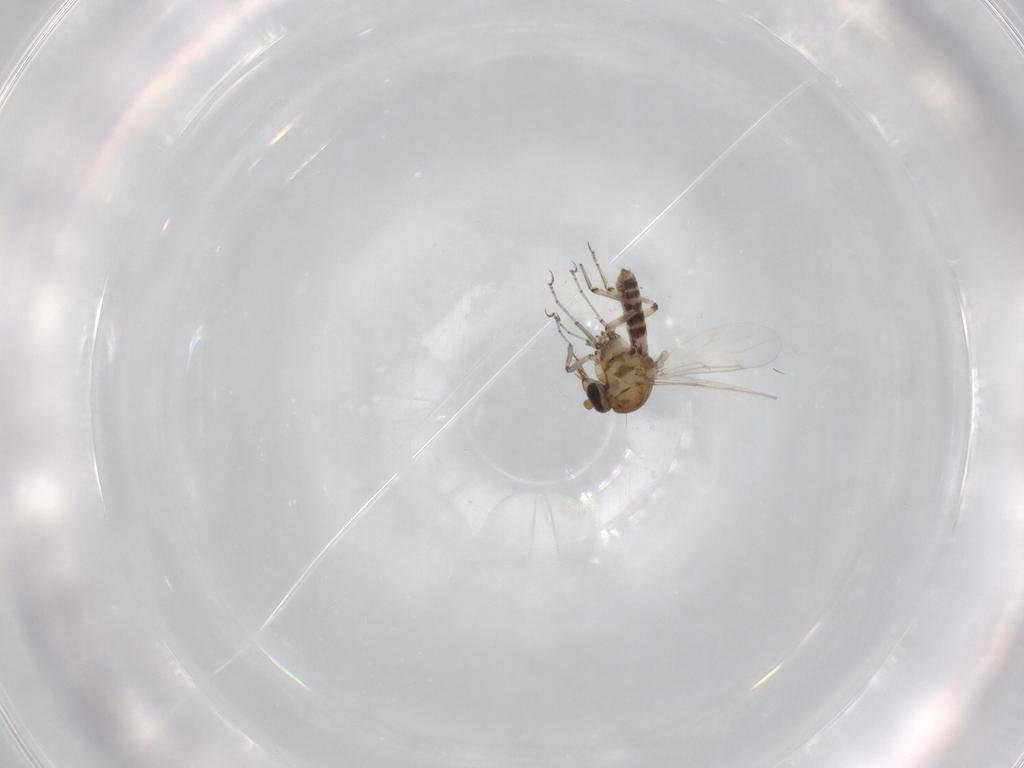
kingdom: Animalia
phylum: Arthropoda
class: Insecta
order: Diptera
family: Ceratopogonidae
